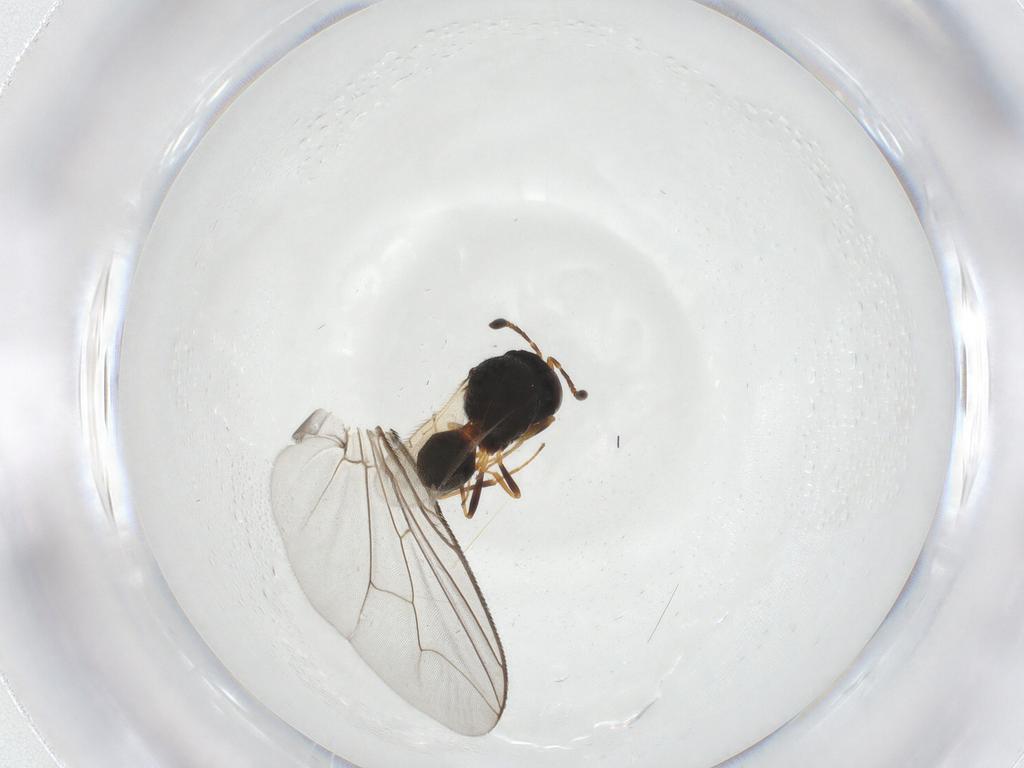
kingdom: Animalia
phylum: Arthropoda
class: Insecta
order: Hymenoptera
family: Scelionidae
